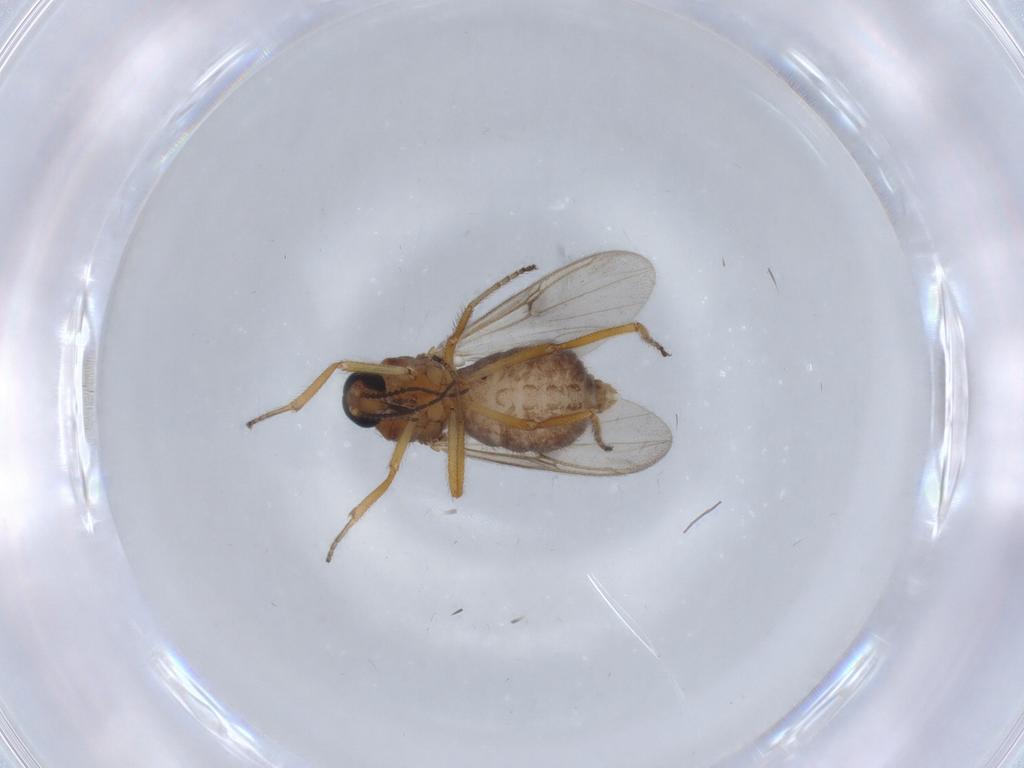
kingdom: Animalia
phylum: Arthropoda
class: Insecta
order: Diptera
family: Ceratopogonidae
